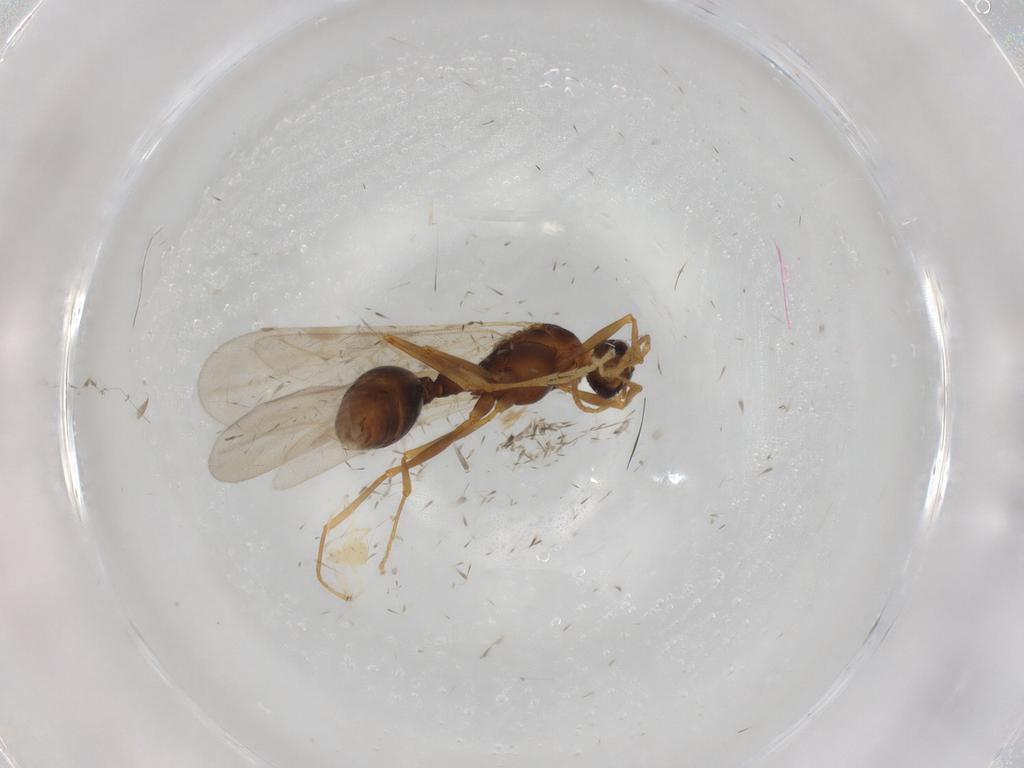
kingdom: Animalia
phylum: Arthropoda
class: Insecta
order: Hymenoptera
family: Formicidae
